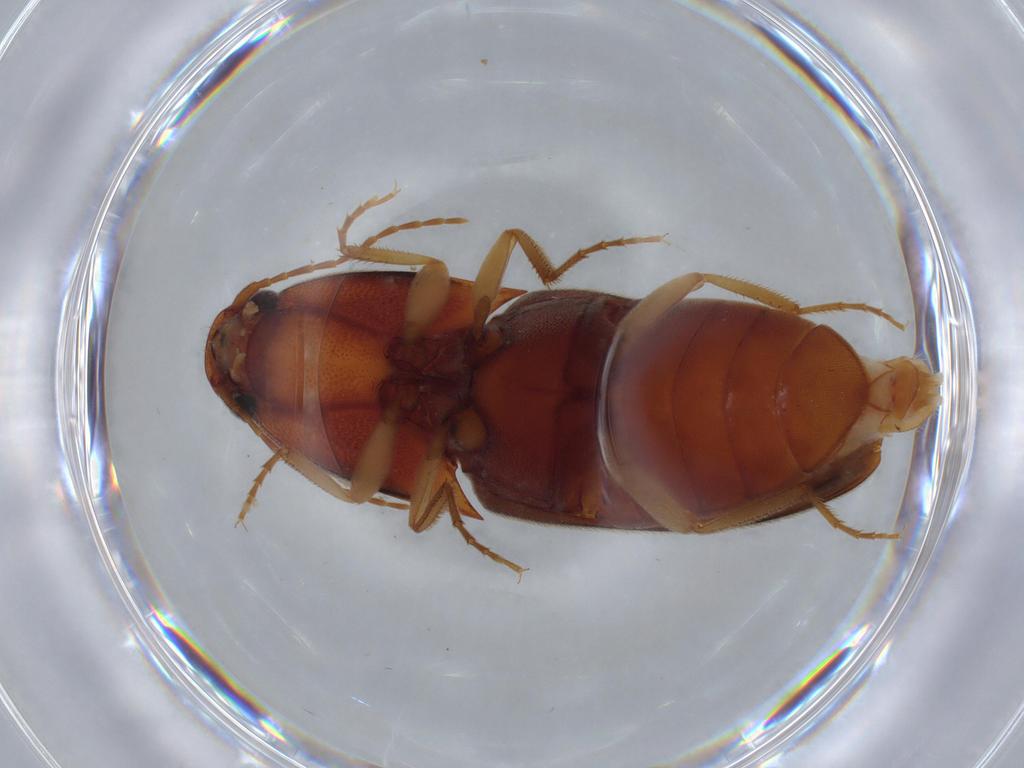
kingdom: Animalia
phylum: Arthropoda
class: Insecta
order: Coleoptera
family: Elateridae
